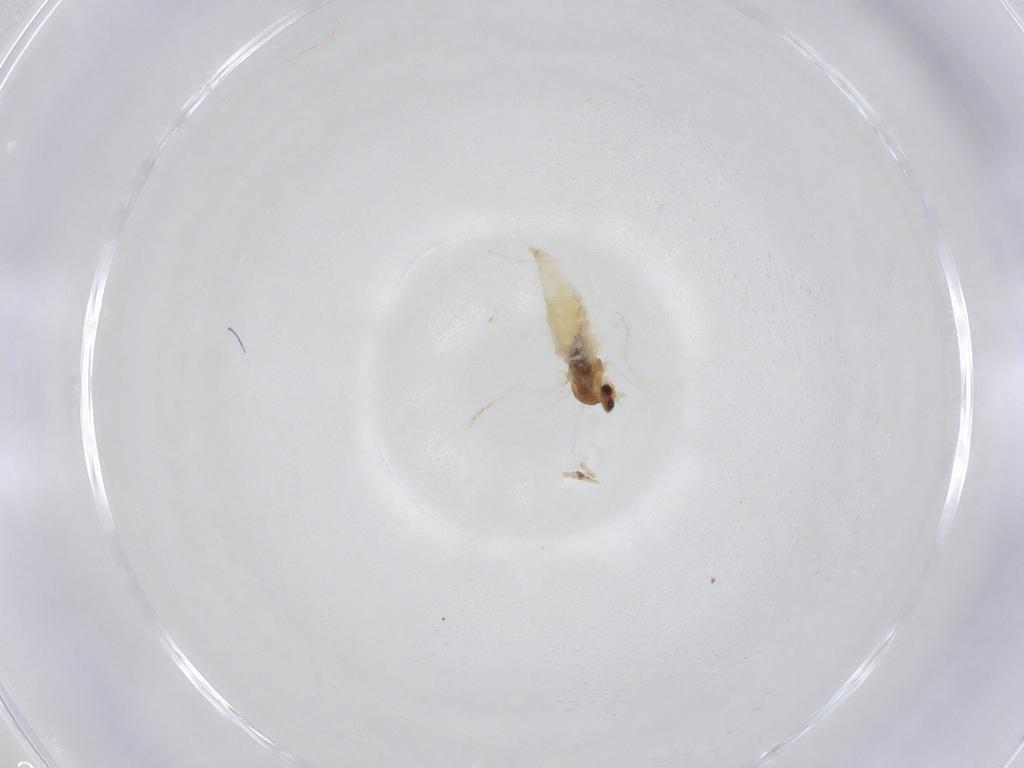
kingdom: Animalia
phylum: Arthropoda
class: Insecta
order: Diptera
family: Syrphidae
